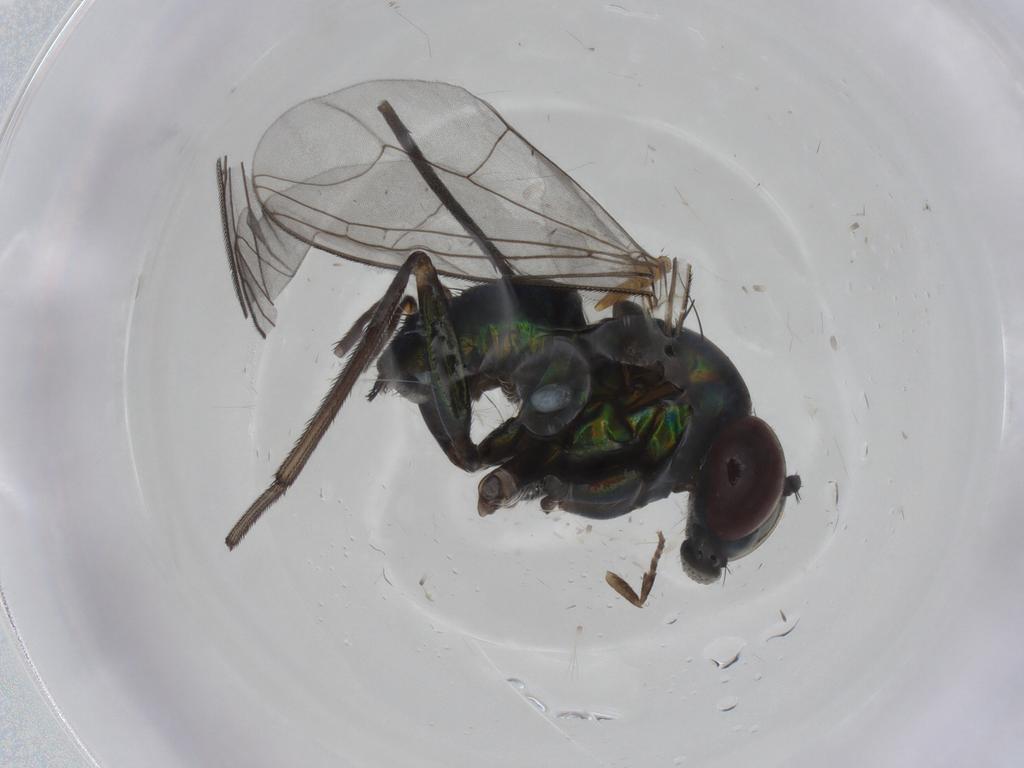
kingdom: Animalia
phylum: Arthropoda
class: Insecta
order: Diptera
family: Dolichopodidae
